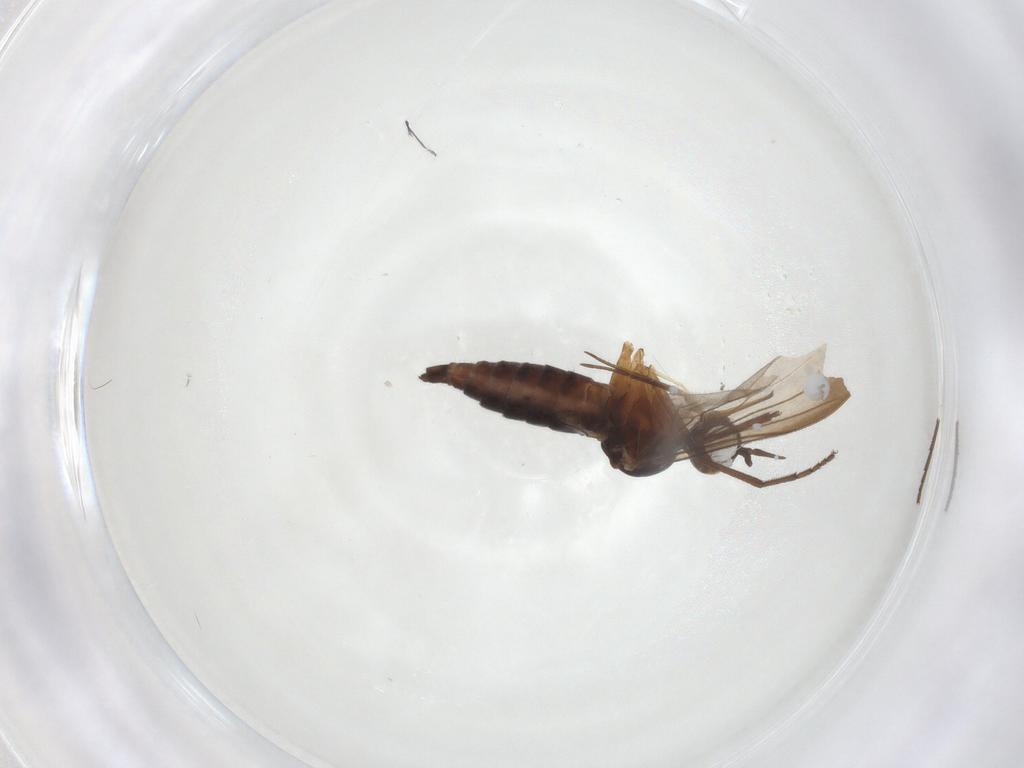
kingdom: Animalia
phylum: Arthropoda
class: Insecta
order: Diptera
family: Dolichopodidae
